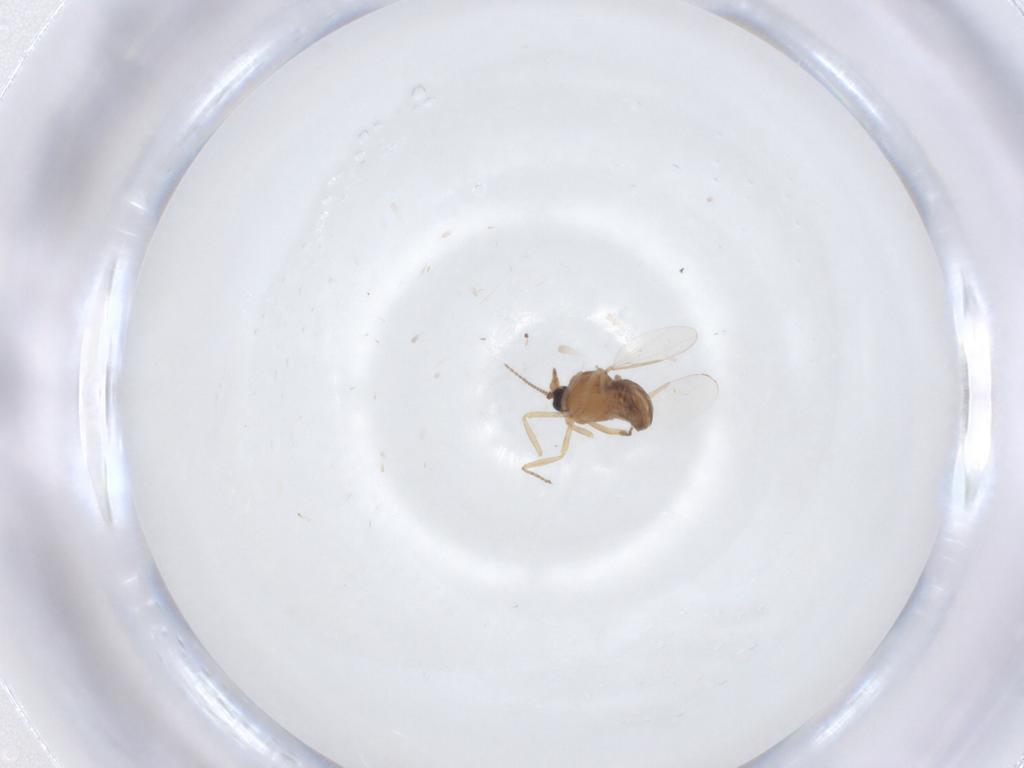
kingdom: Animalia
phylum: Arthropoda
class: Insecta
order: Diptera
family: Ceratopogonidae
